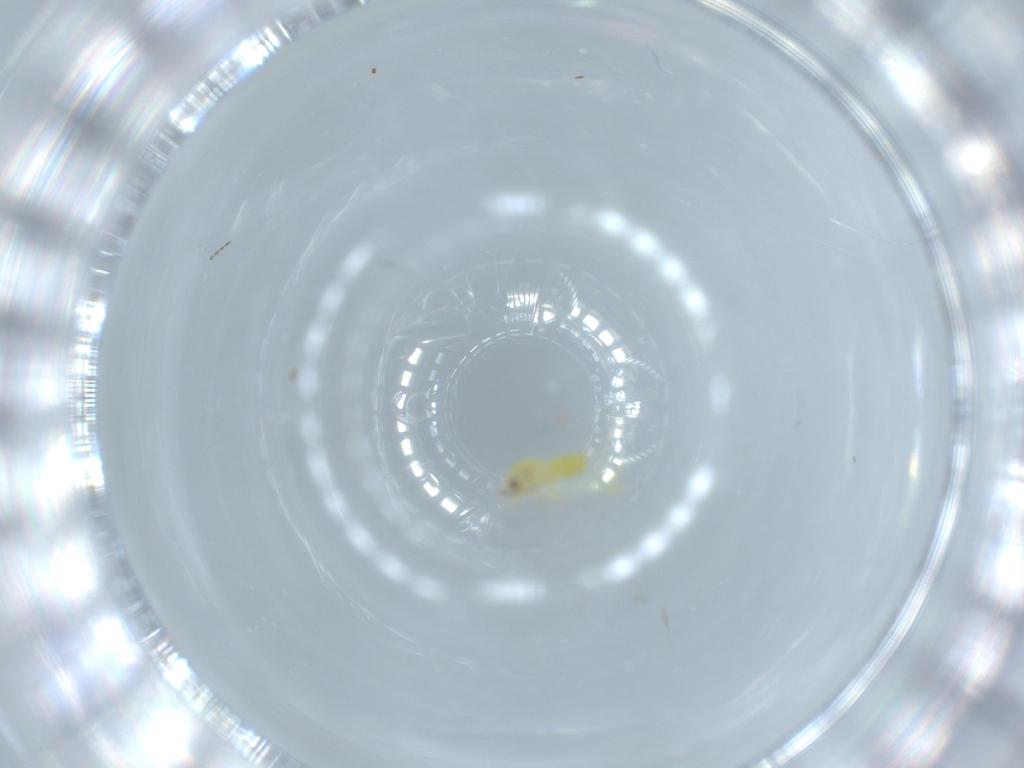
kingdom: Animalia
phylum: Arthropoda
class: Insecta
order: Hemiptera
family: Aleyrodidae
